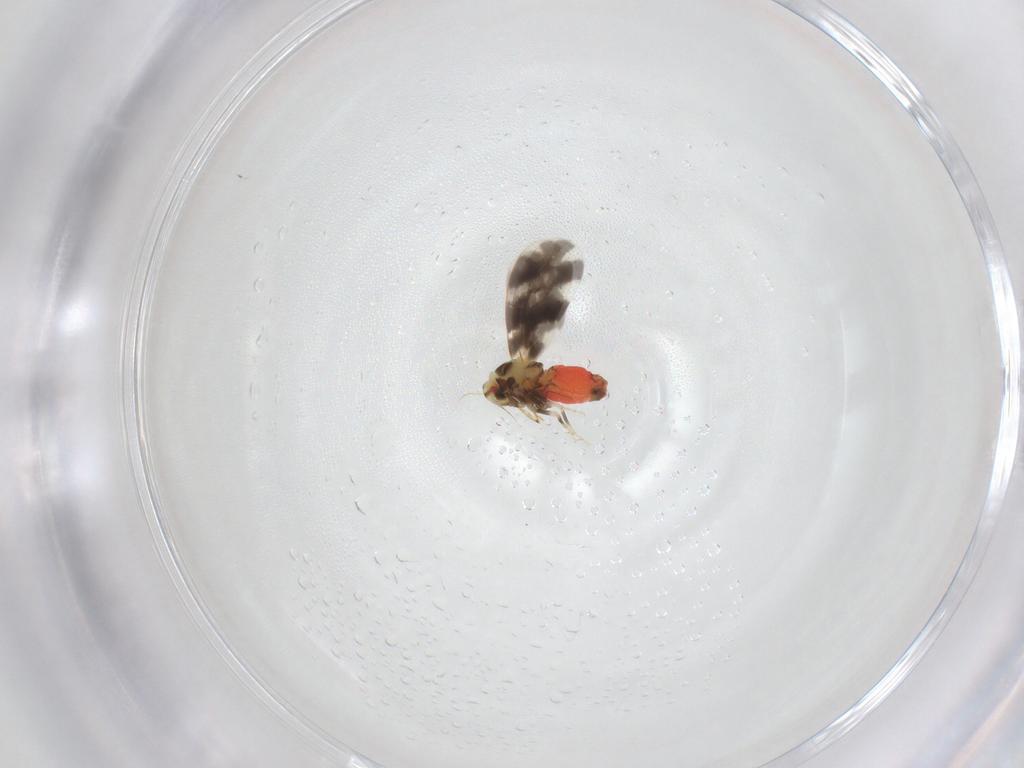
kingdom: Animalia
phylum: Arthropoda
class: Insecta
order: Hemiptera
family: Aleyrodidae
